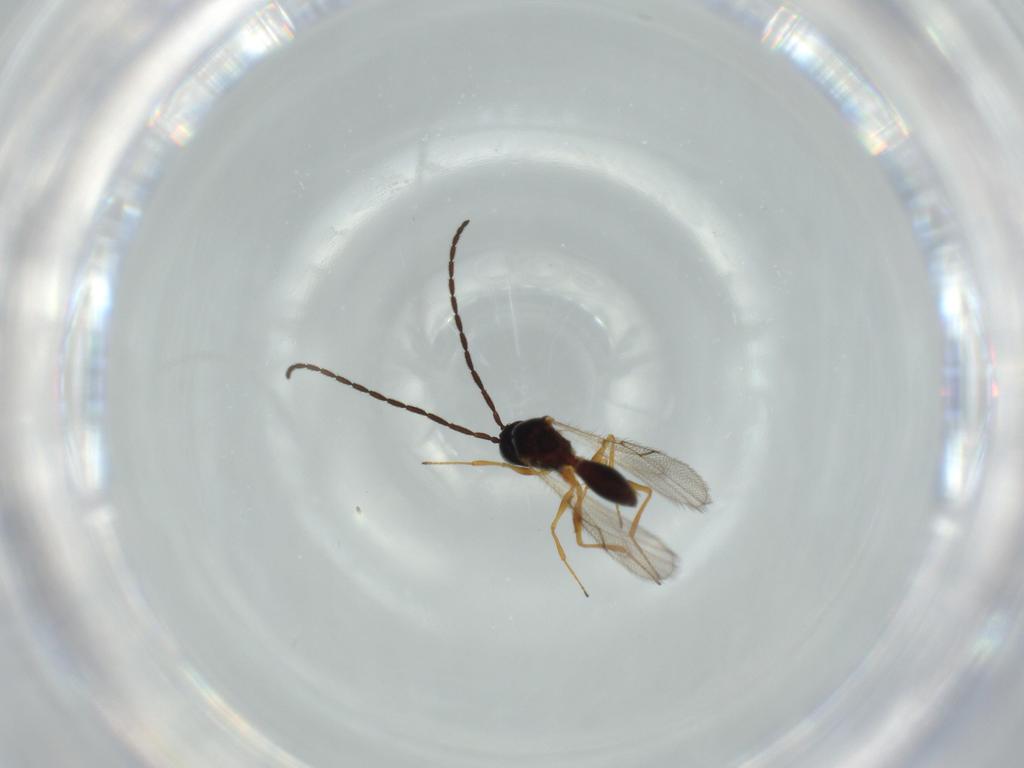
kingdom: Animalia
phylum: Arthropoda
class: Insecta
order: Hymenoptera
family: Figitidae
